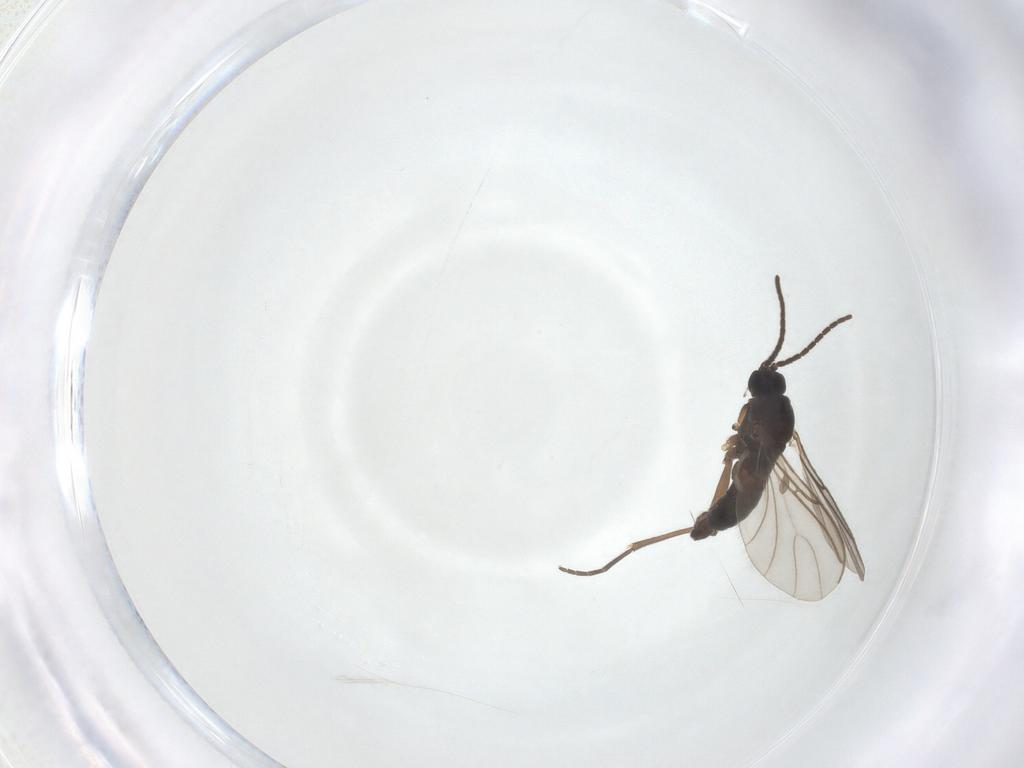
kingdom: Animalia
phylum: Arthropoda
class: Insecta
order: Diptera
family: Sciaridae
